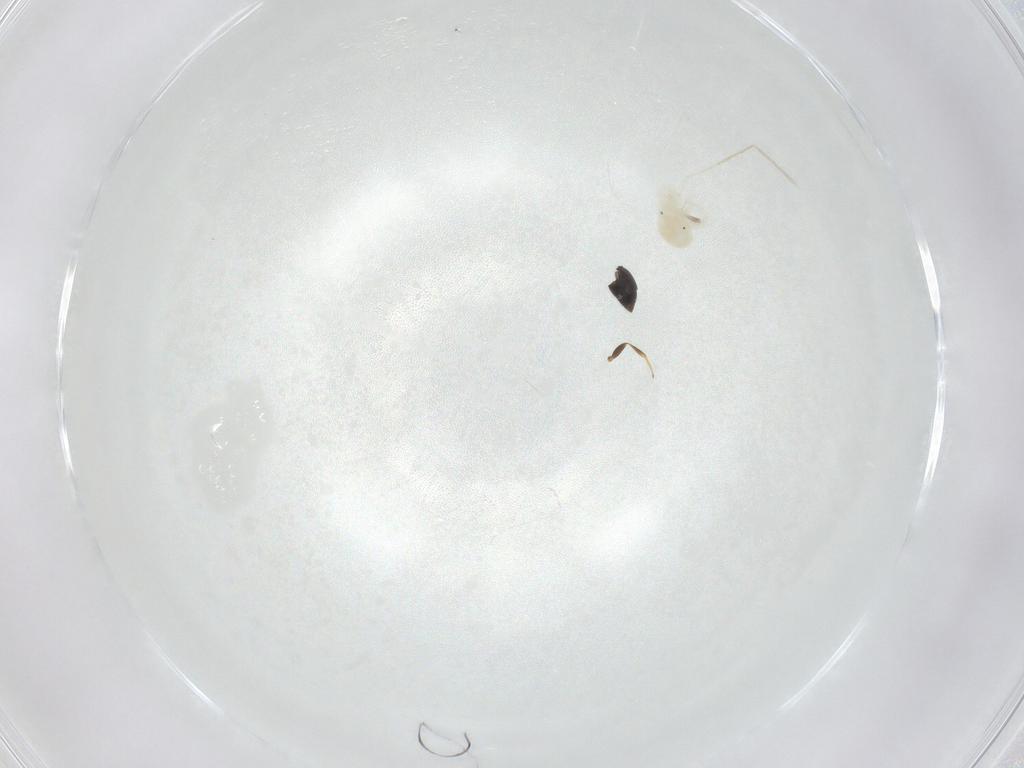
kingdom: Animalia
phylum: Arthropoda
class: Arachnida
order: Trombidiformes
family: Anystidae
